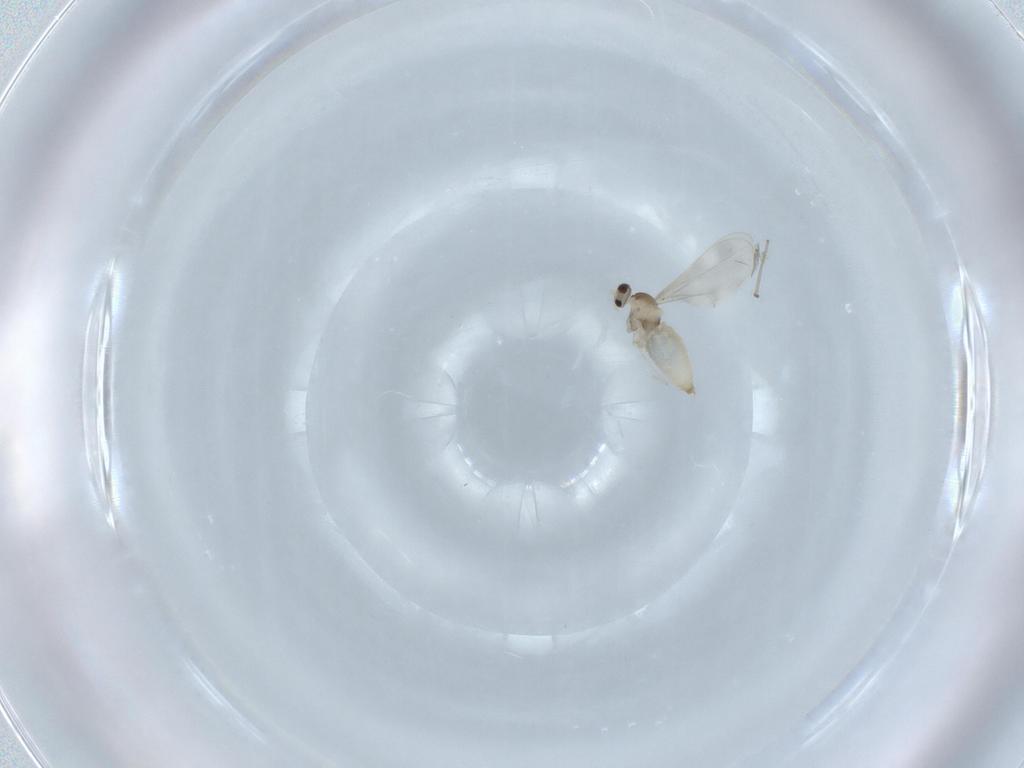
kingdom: Animalia
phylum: Arthropoda
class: Insecta
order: Diptera
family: Cecidomyiidae
